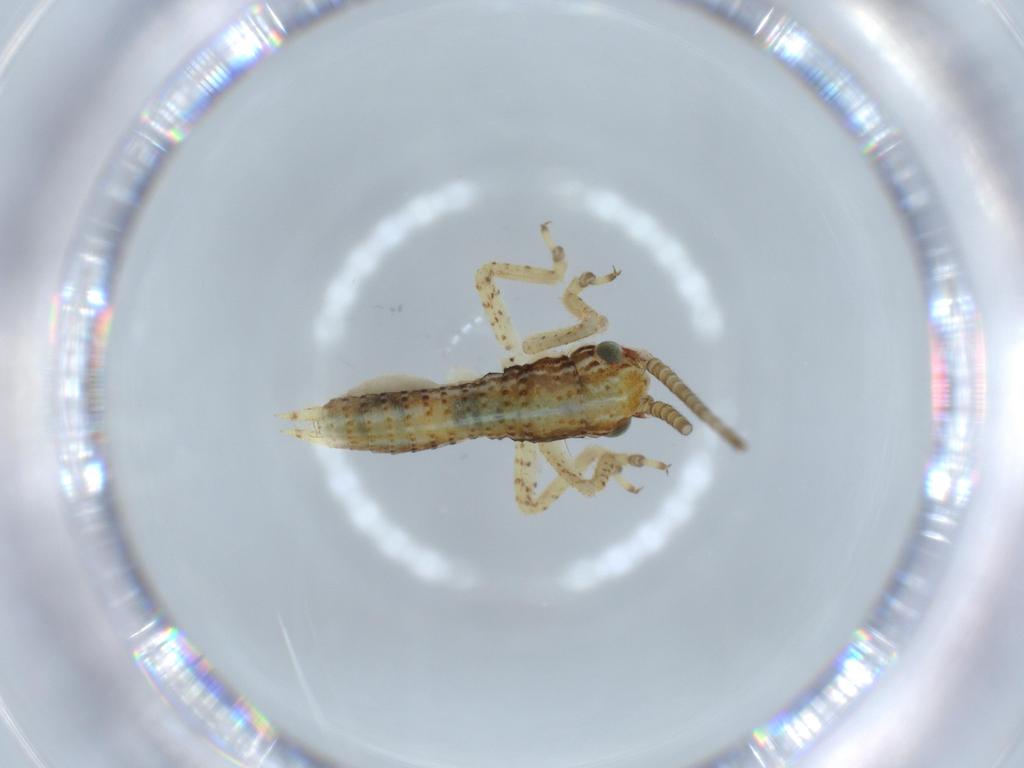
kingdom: Animalia
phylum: Arthropoda
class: Insecta
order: Orthoptera
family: Gryllidae
